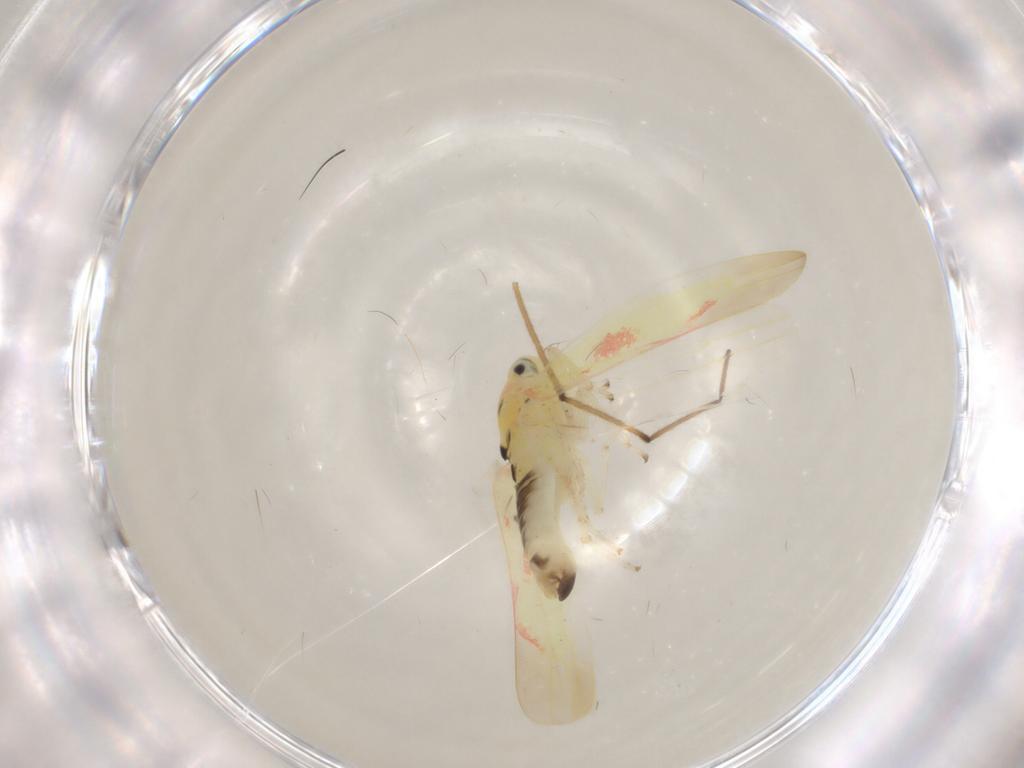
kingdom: Animalia
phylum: Arthropoda
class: Insecta
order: Hemiptera
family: Cicadellidae
